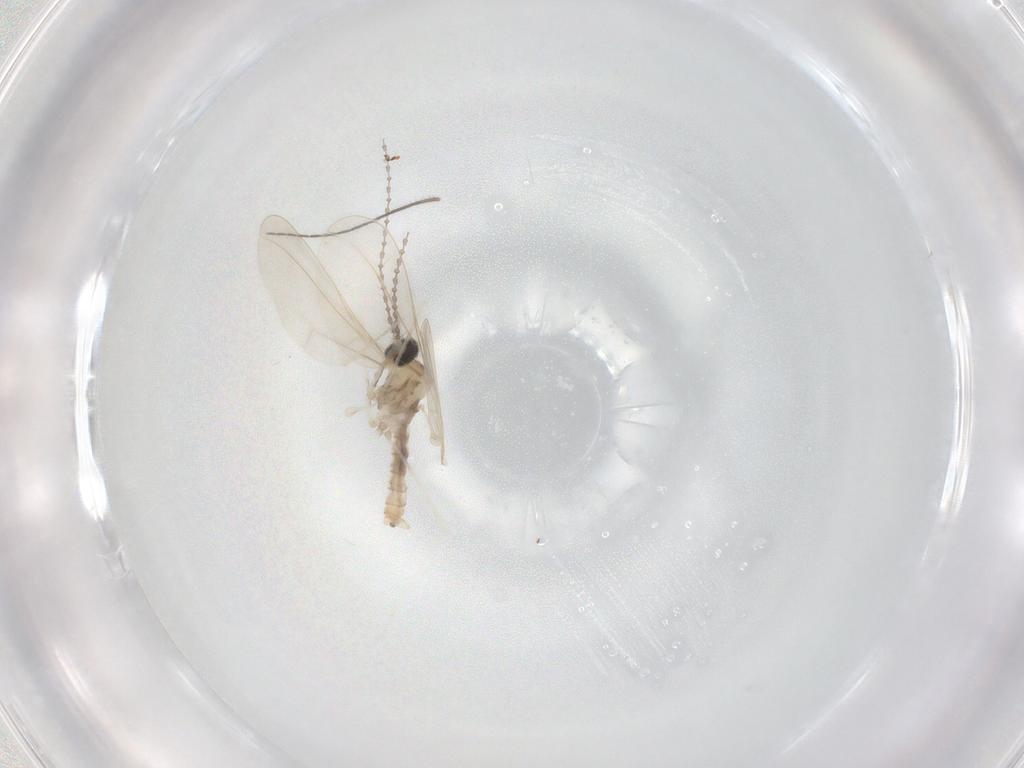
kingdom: Animalia
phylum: Arthropoda
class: Insecta
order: Diptera
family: Cecidomyiidae
